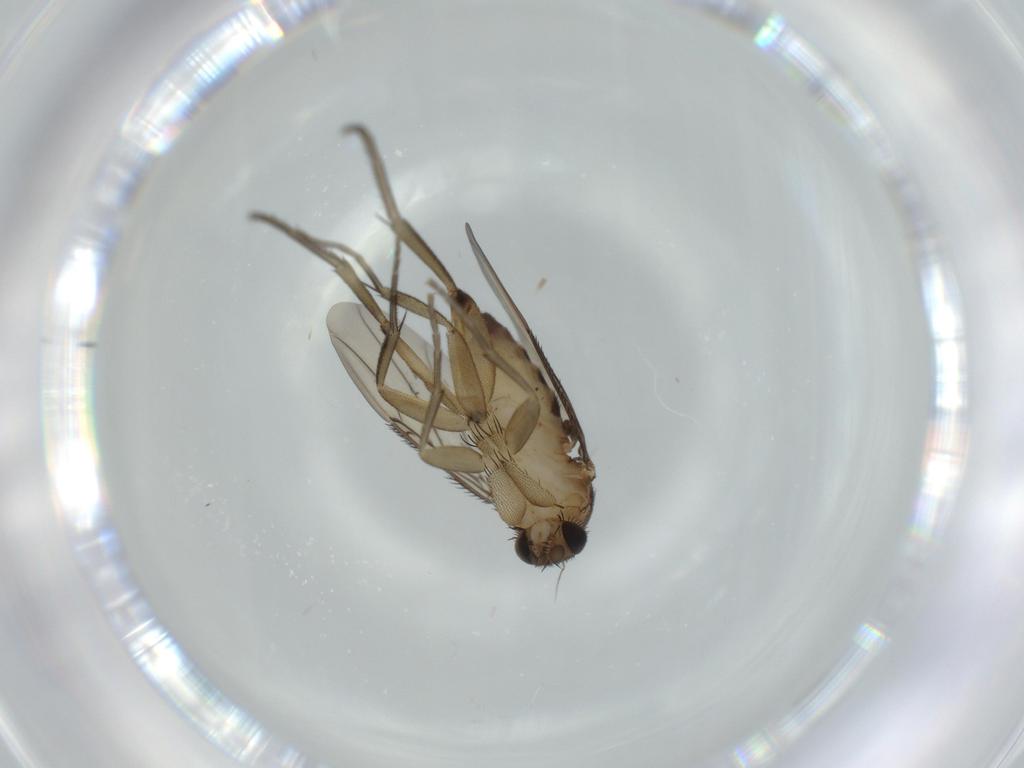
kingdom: Animalia
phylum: Arthropoda
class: Insecta
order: Diptera
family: Phoridae
